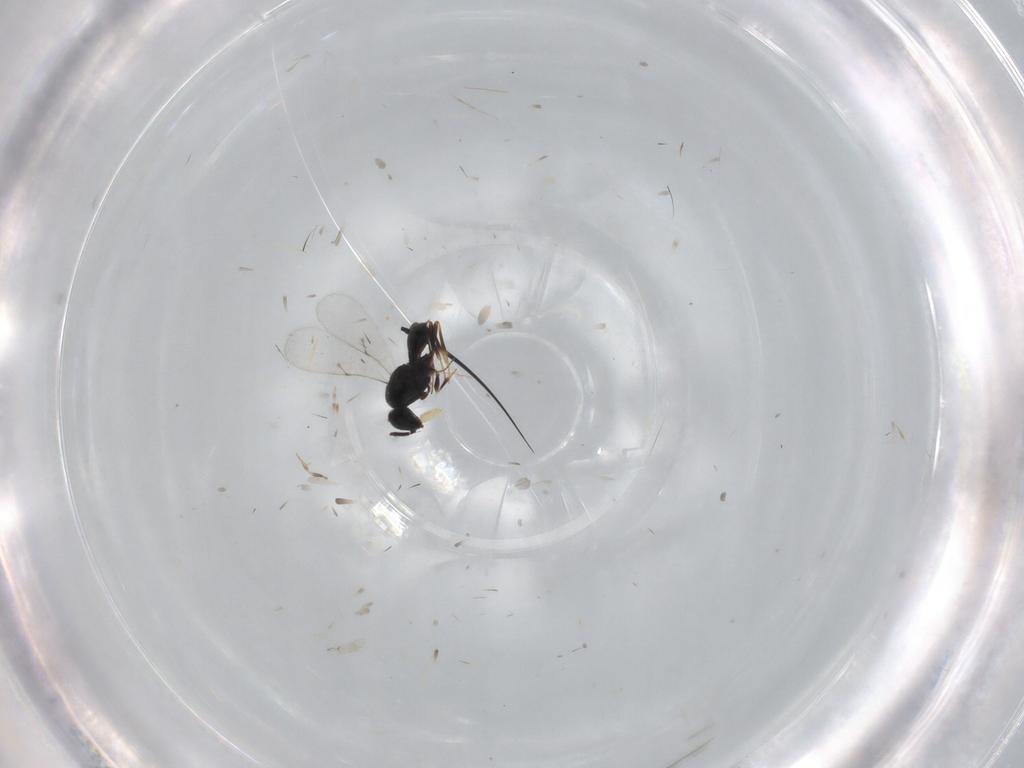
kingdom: Animalia
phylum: Arthropoda
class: Insecta
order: Hymenoptera
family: Scelionidae
